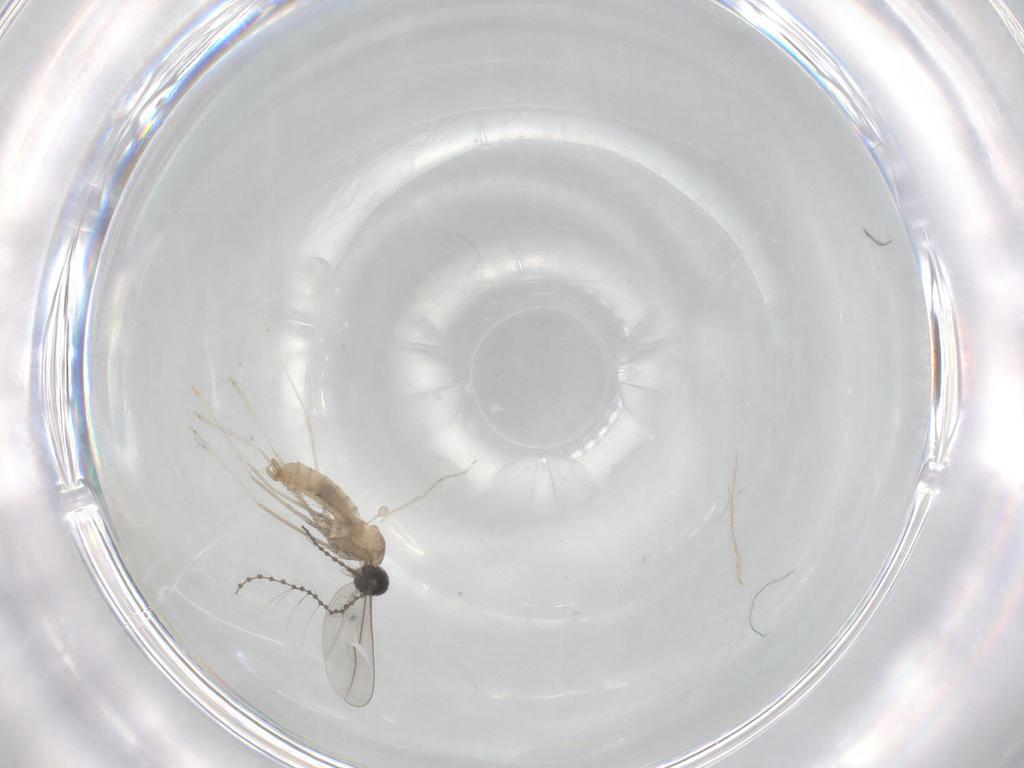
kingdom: Animalia
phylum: Arthropoda
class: Insecta
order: Diptera
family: Cecidomyiidae
